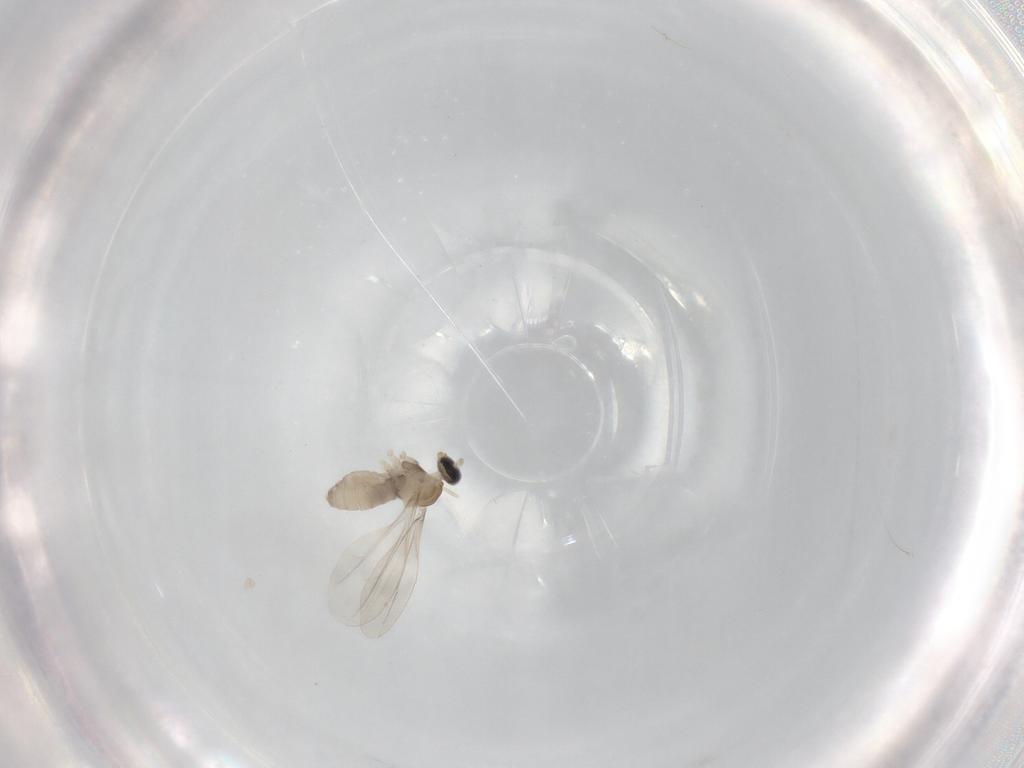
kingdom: Animalia
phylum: Arthropoda
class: Insecta
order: Diptera
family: Cecidomyiidae
